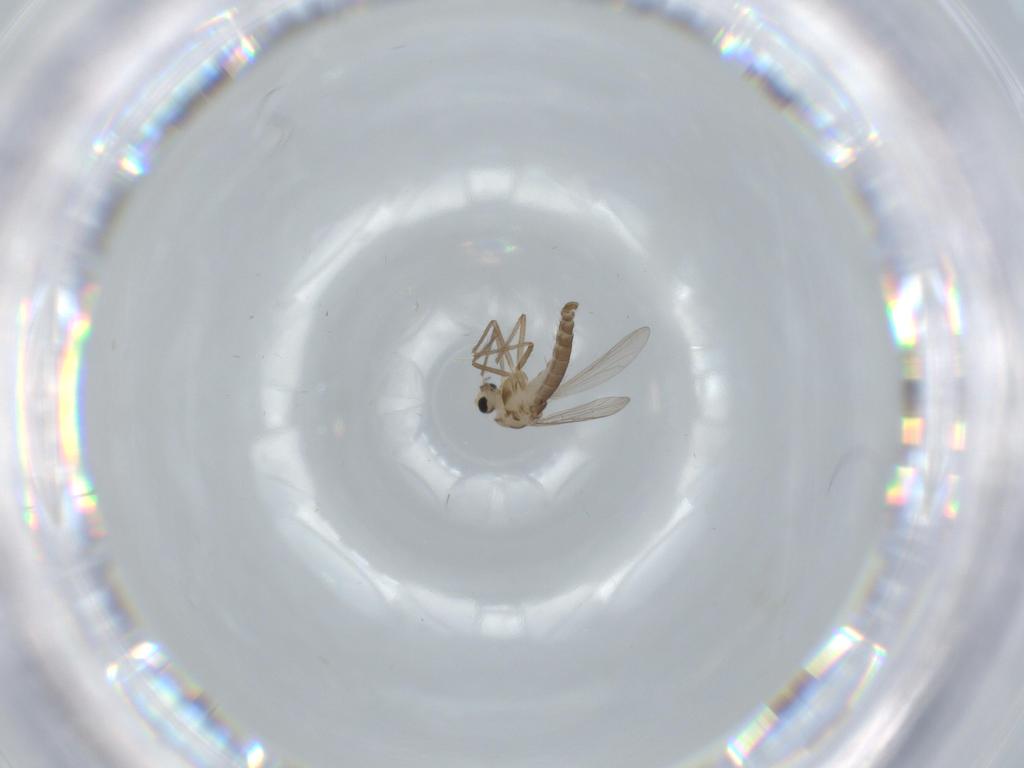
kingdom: Animalia
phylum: Arthropoda
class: Insecta
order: Diptera
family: Chironomidae
